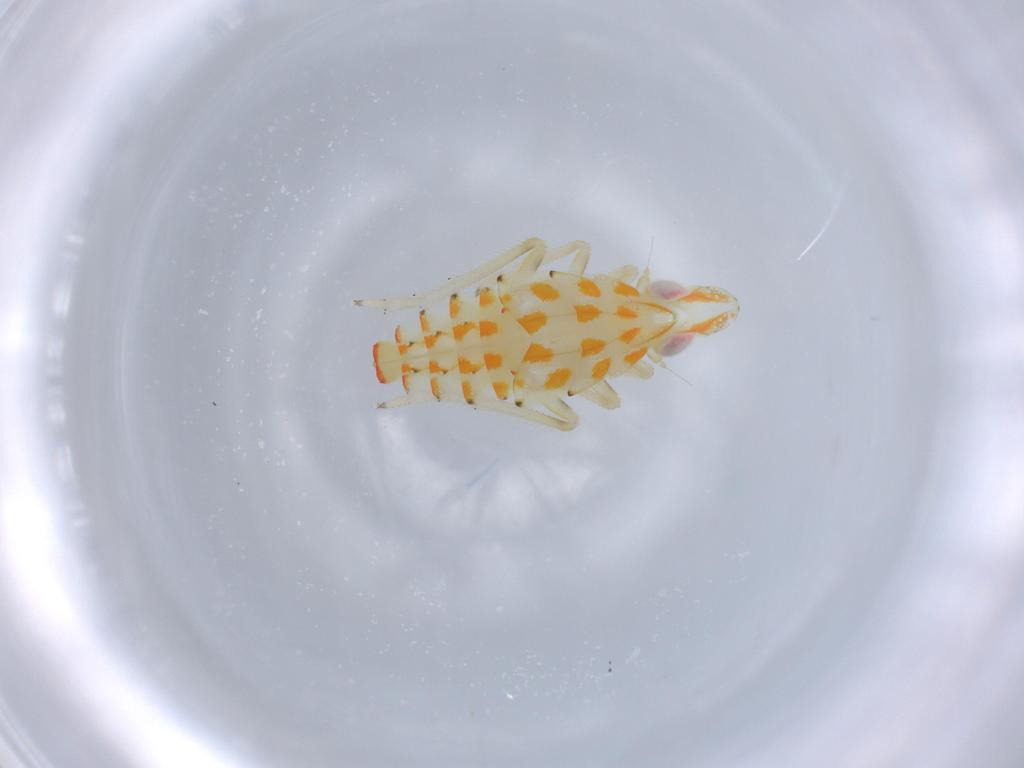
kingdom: Animalia
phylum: Arthropoda
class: Insecta
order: Hemiptera
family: Tropiduchidae
